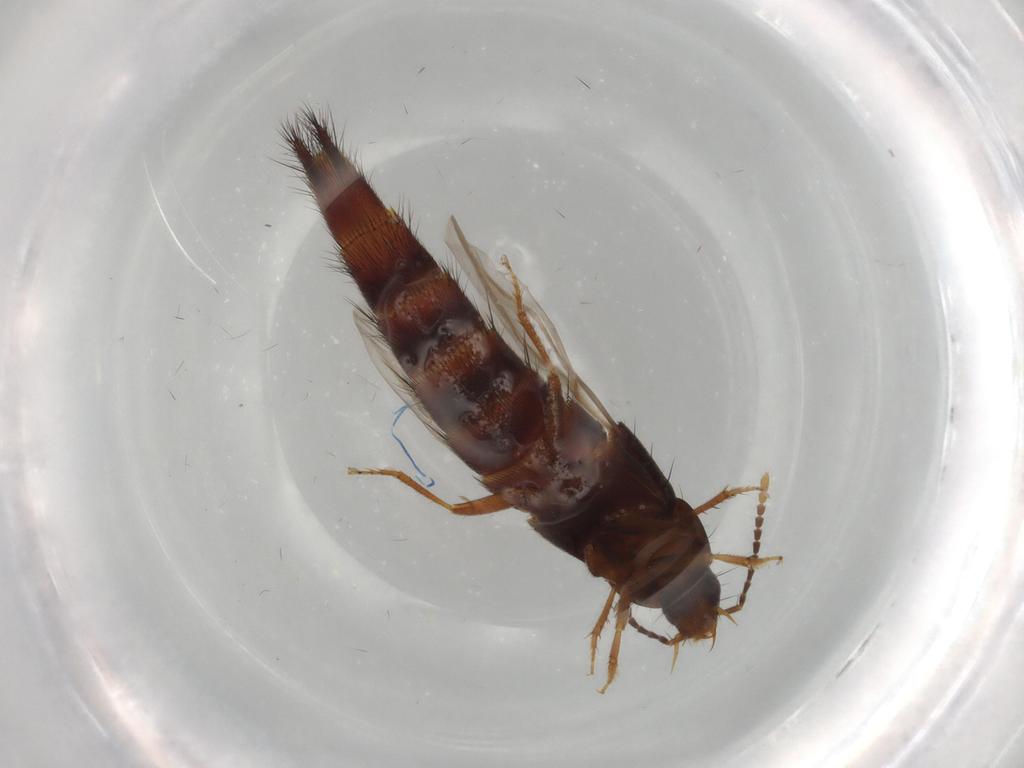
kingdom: Animalia
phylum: Arthropoda
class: Insecta
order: Coleoptera
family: Staphylinidae
